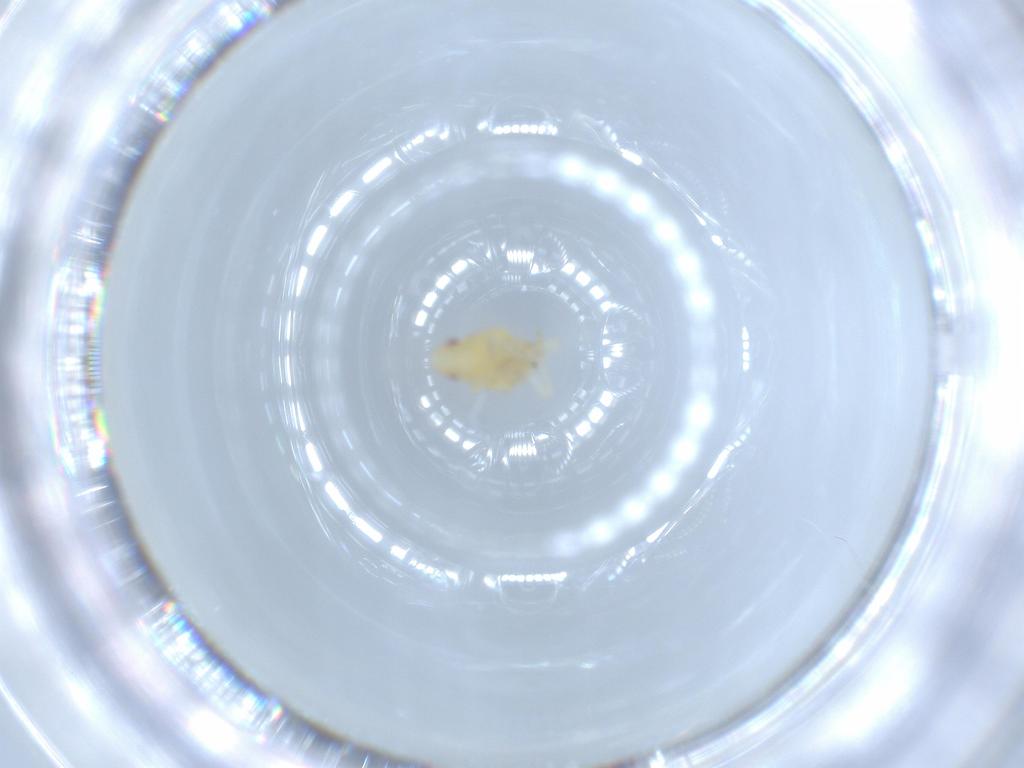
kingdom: Animalia
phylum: Arthropoda
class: Insecta
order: Hemiptera
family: Tropiduchidae
